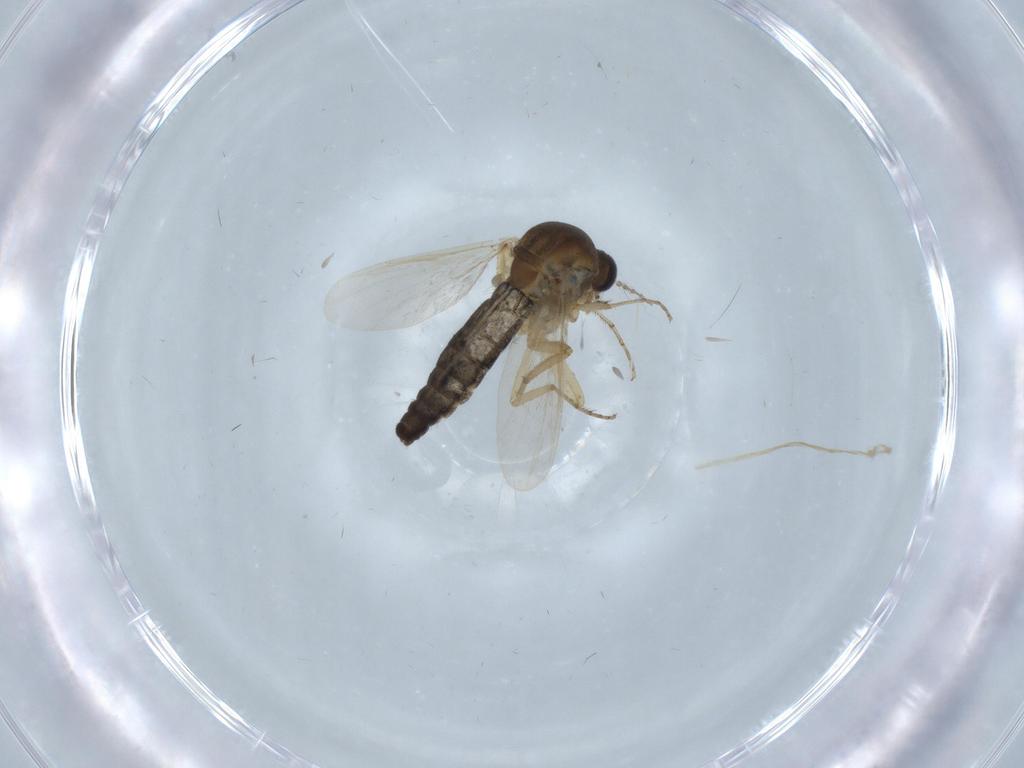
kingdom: Animalia
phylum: Arthropoda
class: Insecta
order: Diptera
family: Ceratopogonidae
